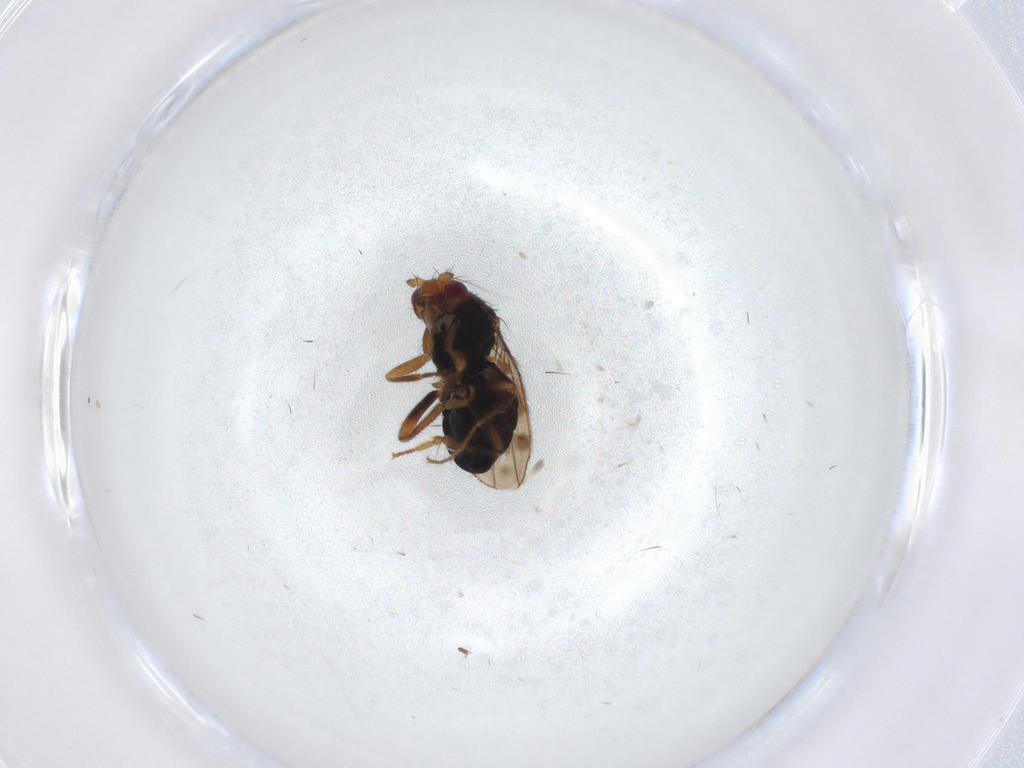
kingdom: Animalia
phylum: Arthropoda
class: Insecta
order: Diptera
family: Sphaeroceridae
